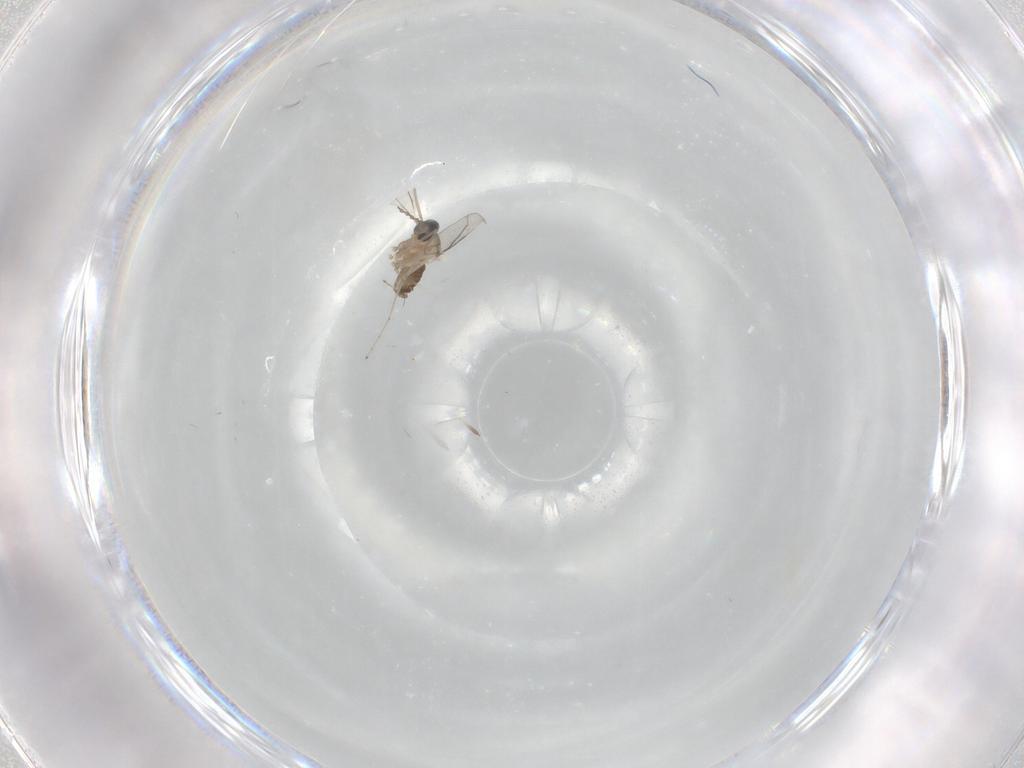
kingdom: Animalia
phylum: Arthropoda
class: Insecta
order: Diptera
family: Cecidomyiidae
